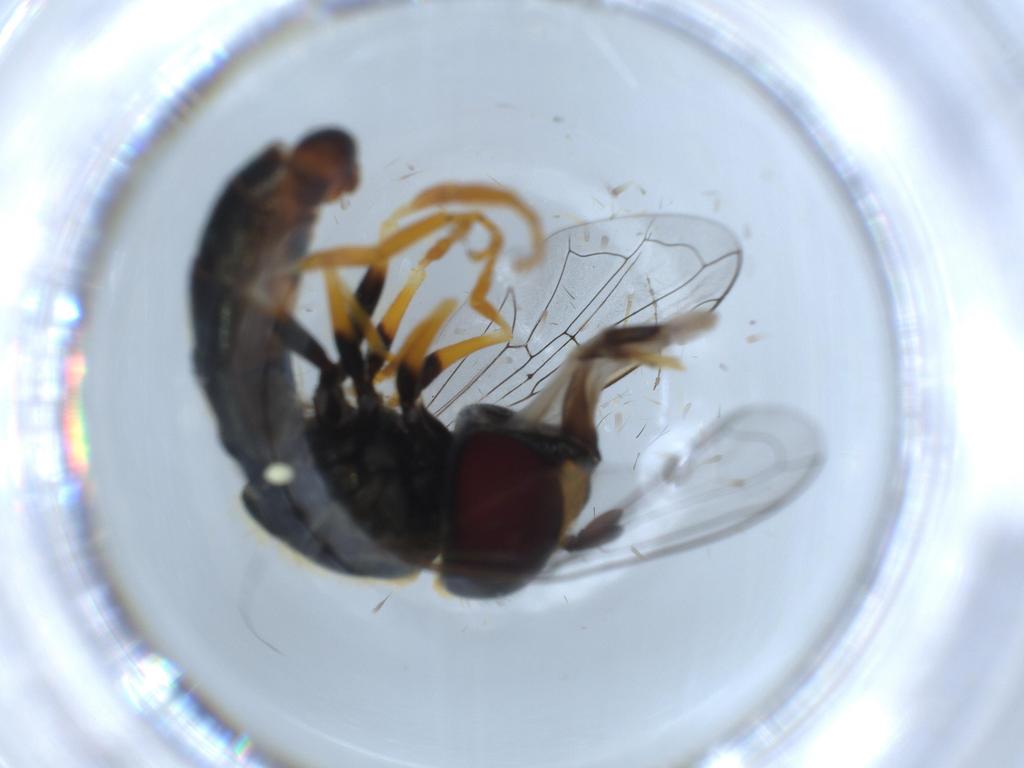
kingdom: Animalia
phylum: Arthropoda
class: Insecta
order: Diptera
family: Syrphidae
